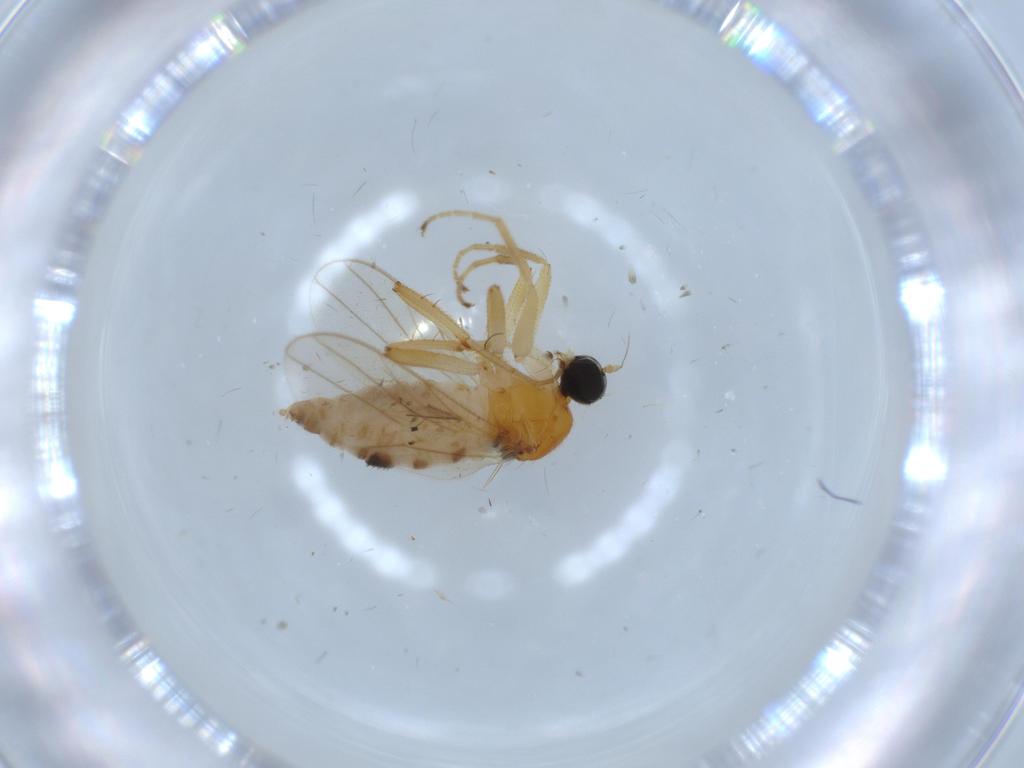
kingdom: Animalia
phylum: Arthropoda
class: Insecta
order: Diptera
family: Hybotidae
